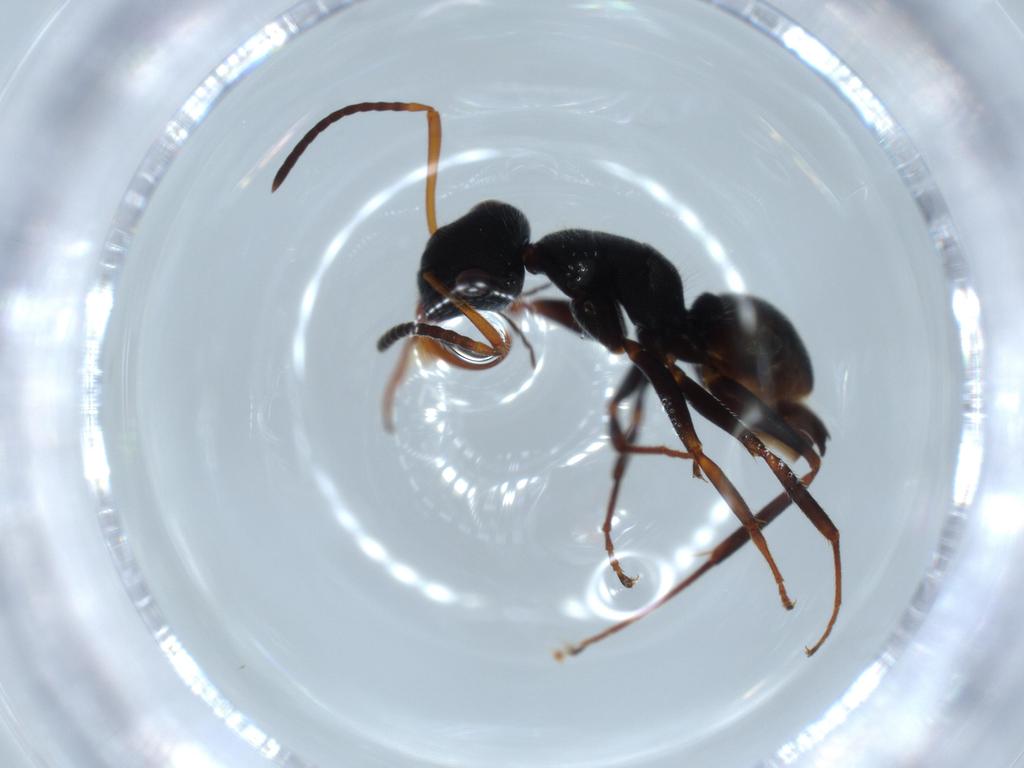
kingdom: Animalia
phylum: Arthropoda
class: Insecta
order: Hymenoptera
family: Formicidae
